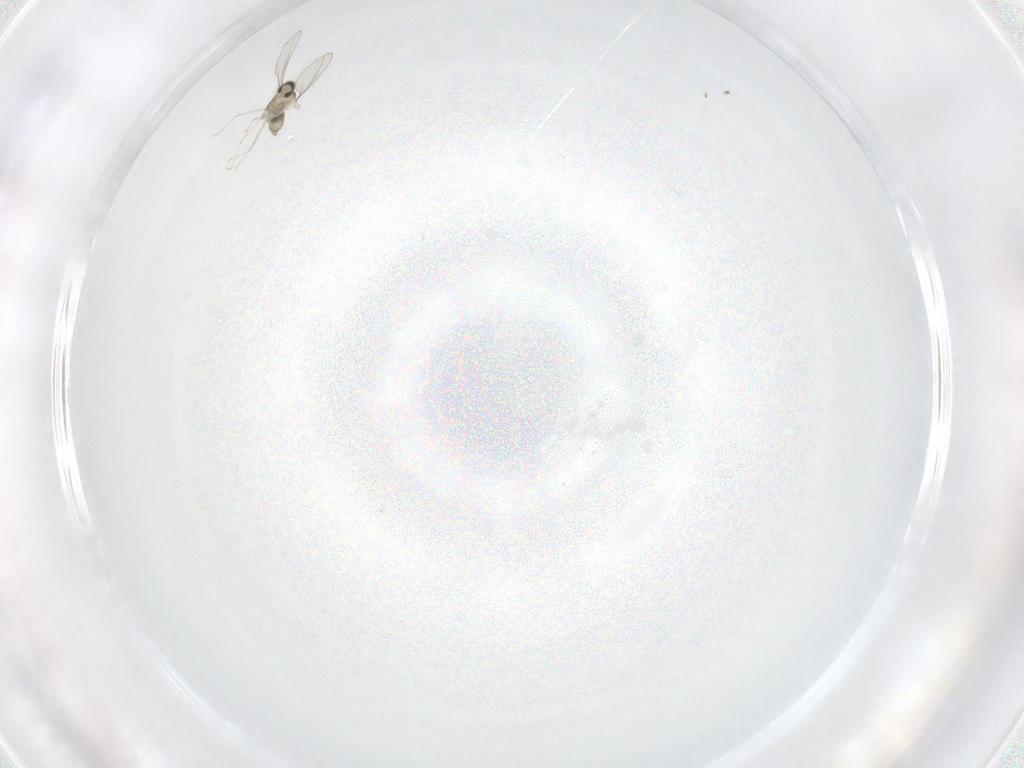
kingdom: Animalia
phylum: Arthropoda
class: Insecta
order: Diptera
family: Cecidomyiidae
